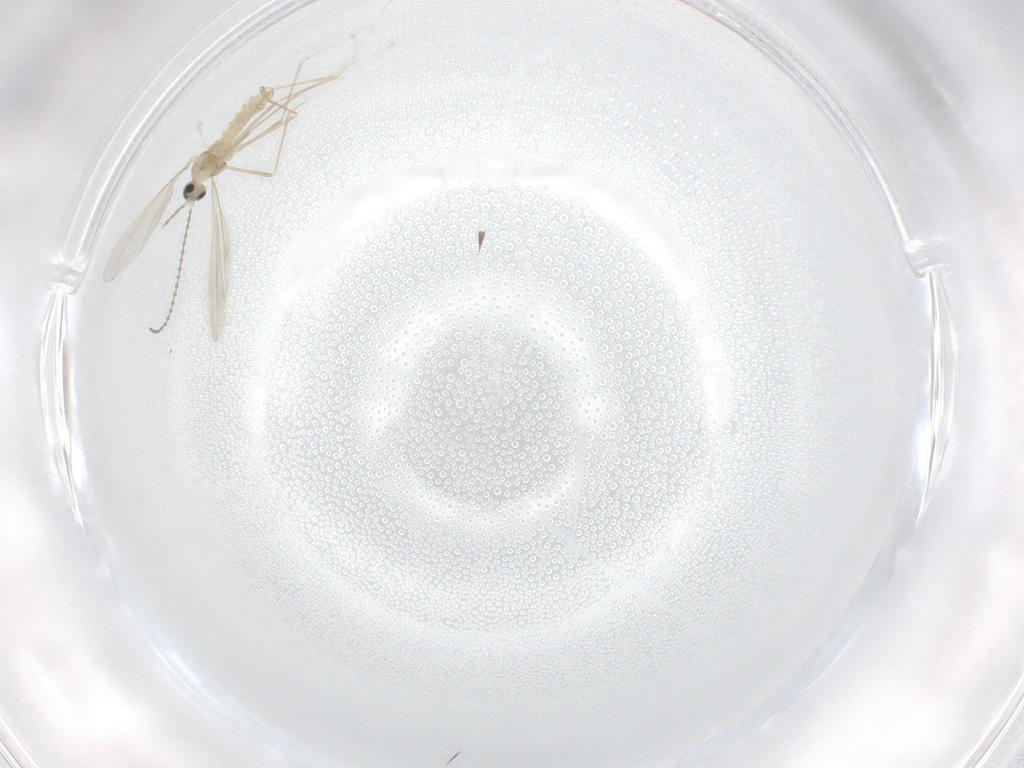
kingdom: Animalia
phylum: Arthropoda
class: Insecta
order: Diptera
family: Cecidomyiidae
